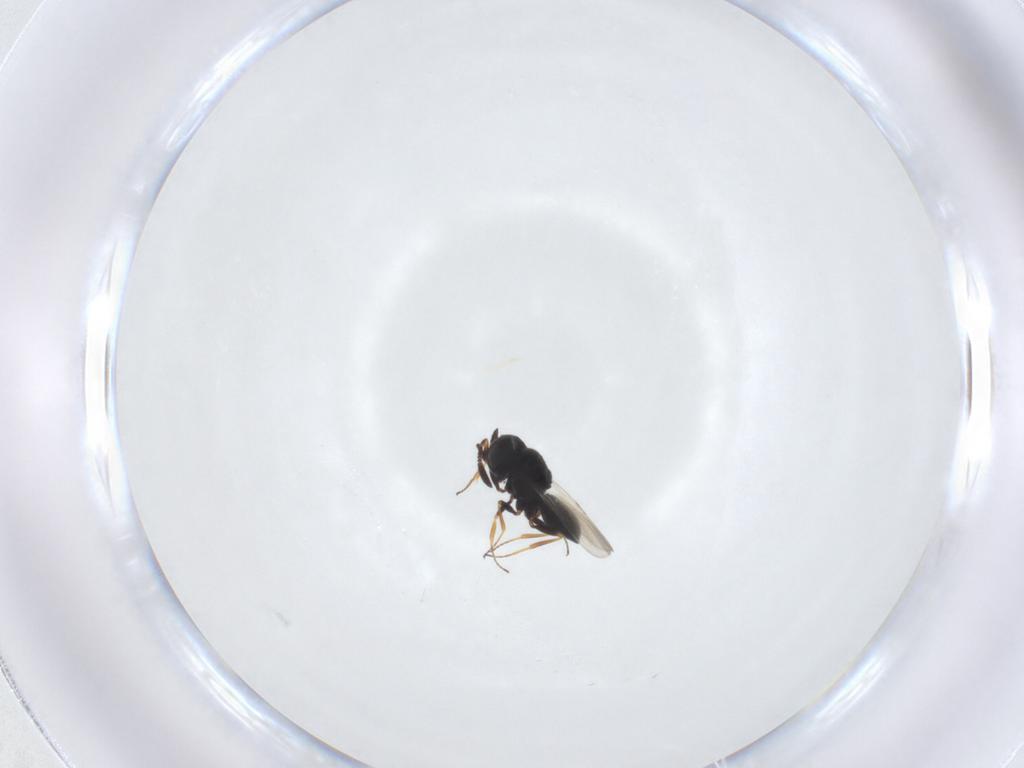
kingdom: Animalia
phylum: Arthropoda
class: Insecta
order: Hymenoptera
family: Scelionidae
